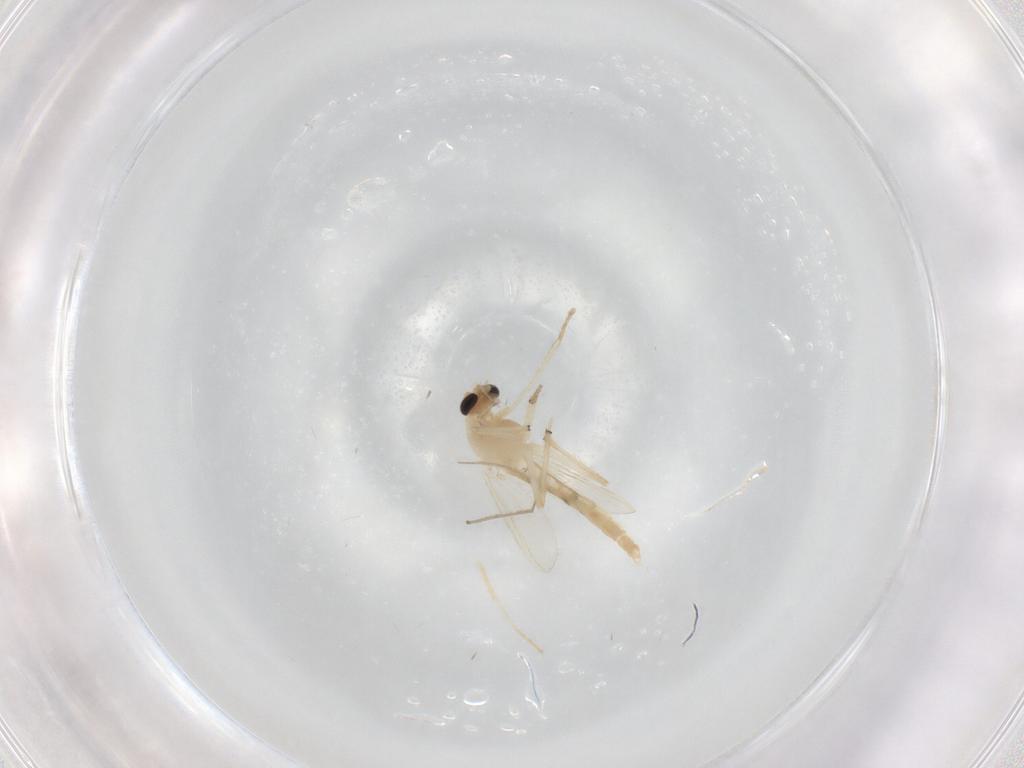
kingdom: Animalia
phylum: Arthropoda
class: Insecta
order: Diptera
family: Chironomidae
